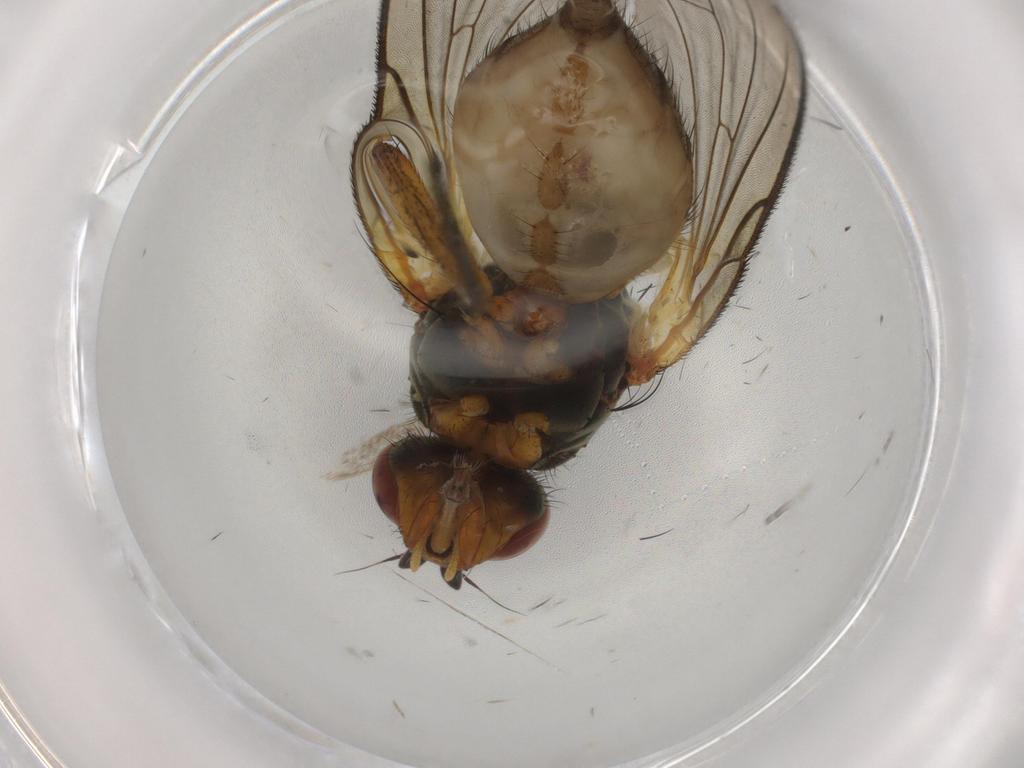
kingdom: Animalia
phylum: Arthropoda
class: Insecta
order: Diptera
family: Anthomyiidae
